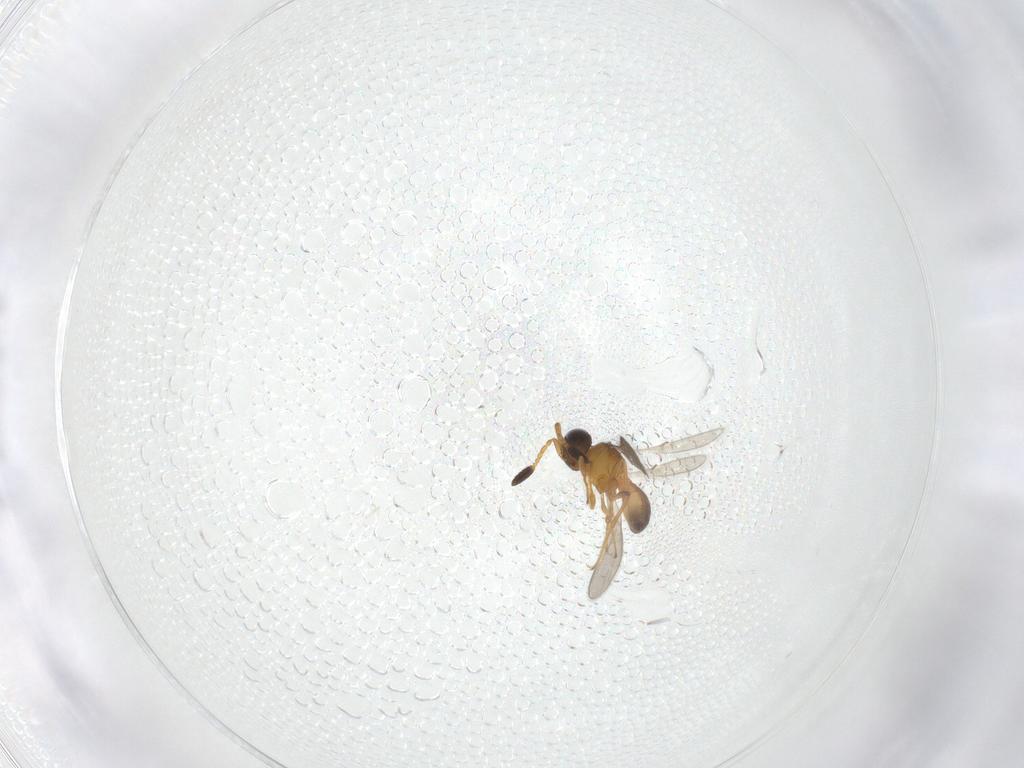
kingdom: Animalia
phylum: Arthropoda
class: Insecta
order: Hymenoptera
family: Scelionidae
